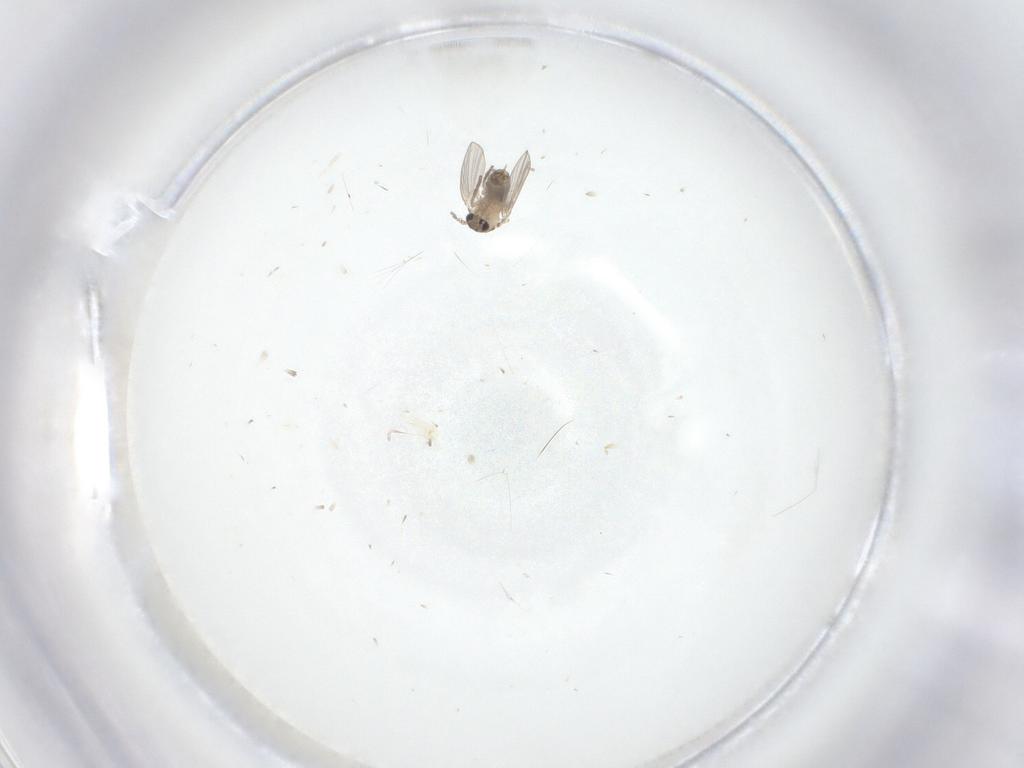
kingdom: Animalia
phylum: Arthropoda
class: Insecta
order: Diptera
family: Psychodidae
